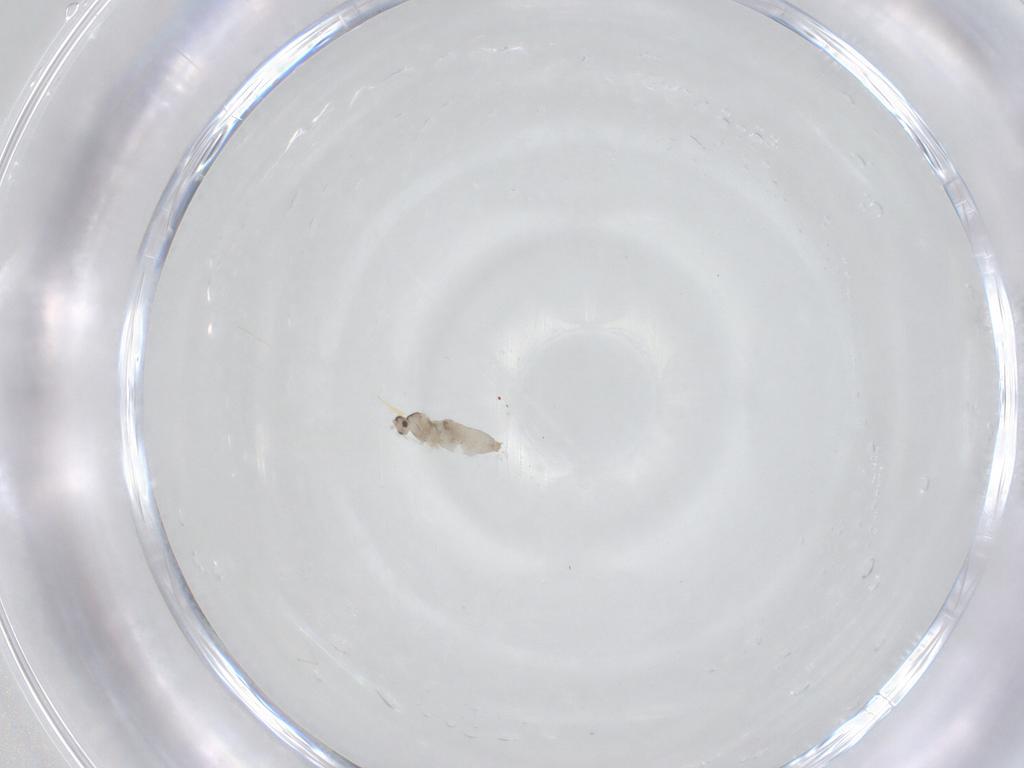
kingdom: Animalia
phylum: Arthropoda
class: Insecta
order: Diptera
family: Cecidomyiidae
